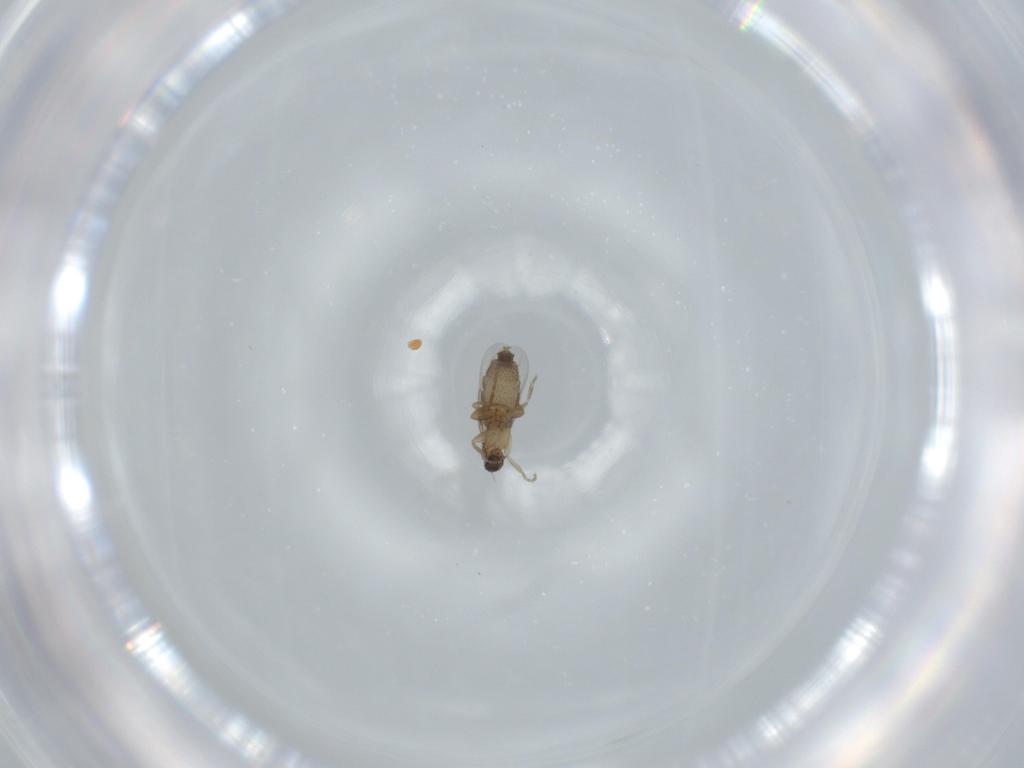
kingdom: Animalia
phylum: Arthropoda
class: Insecta
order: Diptera
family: Phoridae
